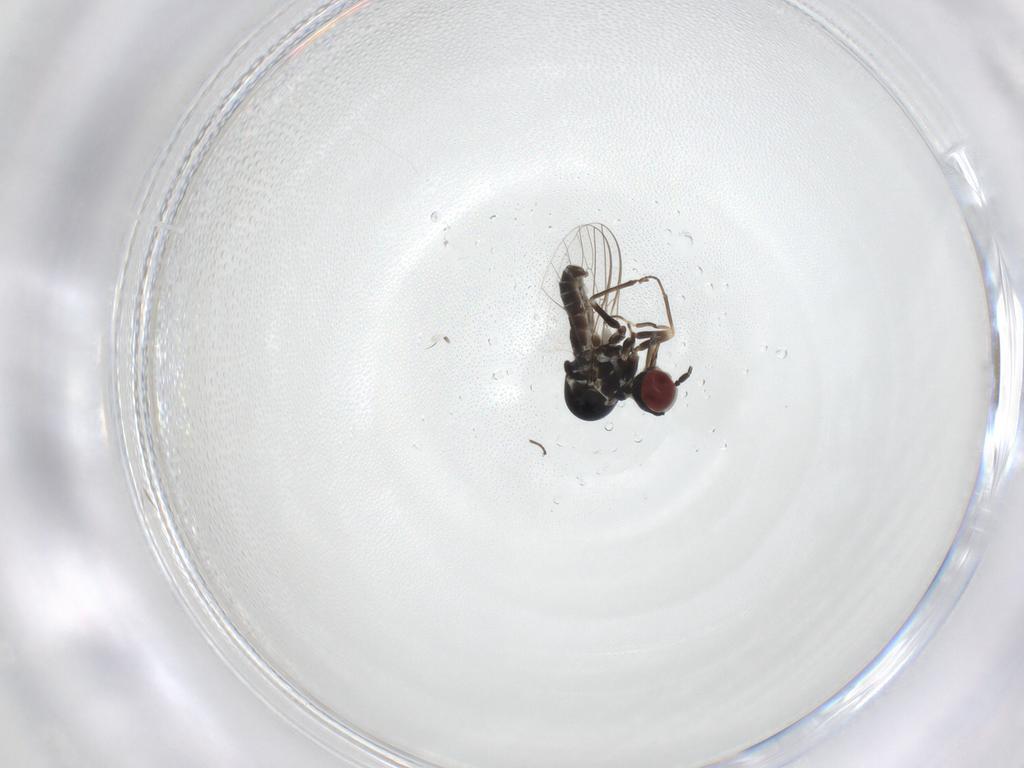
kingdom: Animalia
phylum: Arthropoda
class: Insecta
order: Diptera
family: Bombyliidae
